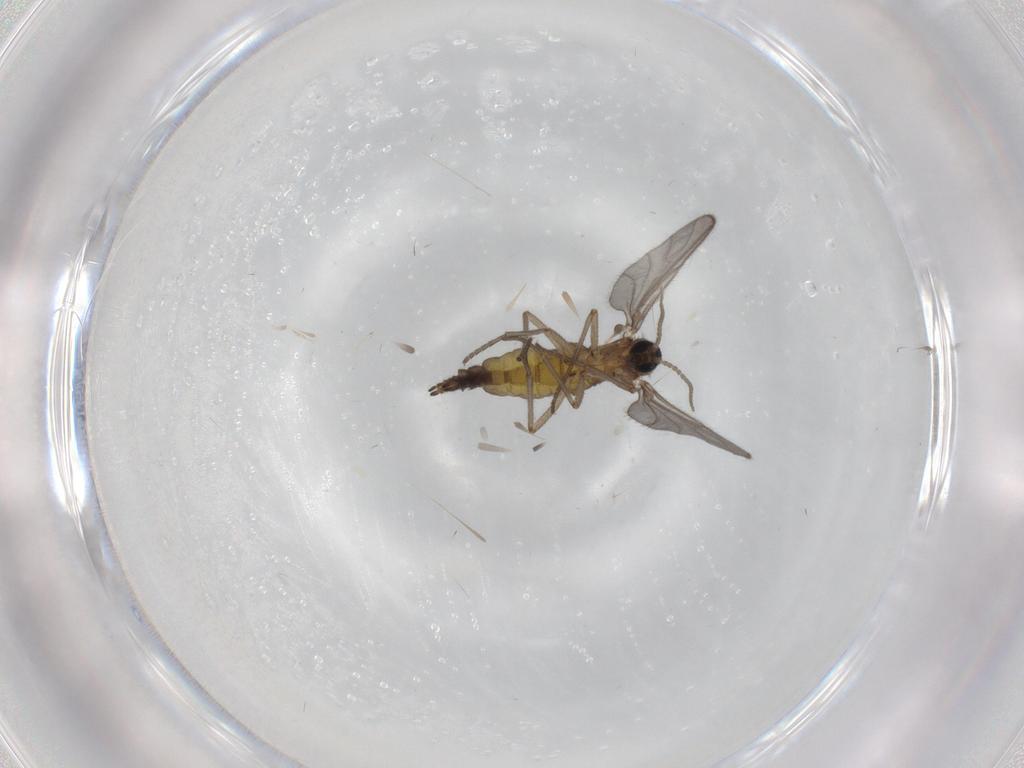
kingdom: Animalia
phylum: Arthropoda
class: Insecta
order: Diptera
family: Sciaridae
